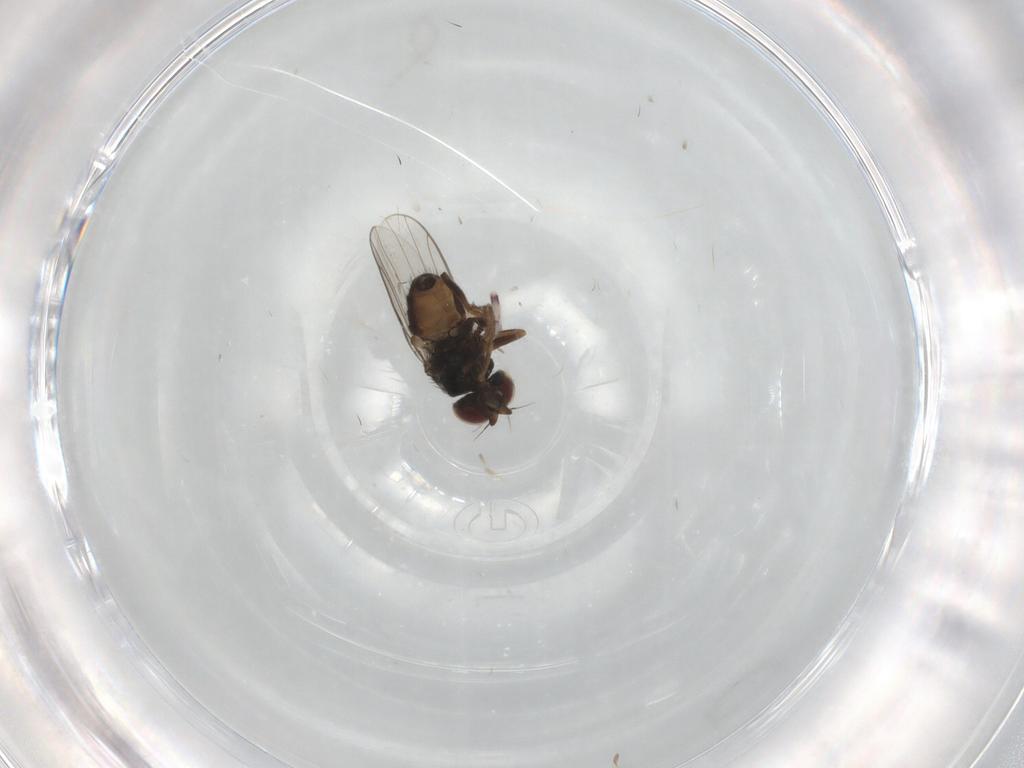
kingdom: Animalia
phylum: Arthropoda
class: Insecta
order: Diptera
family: Chloropidae
